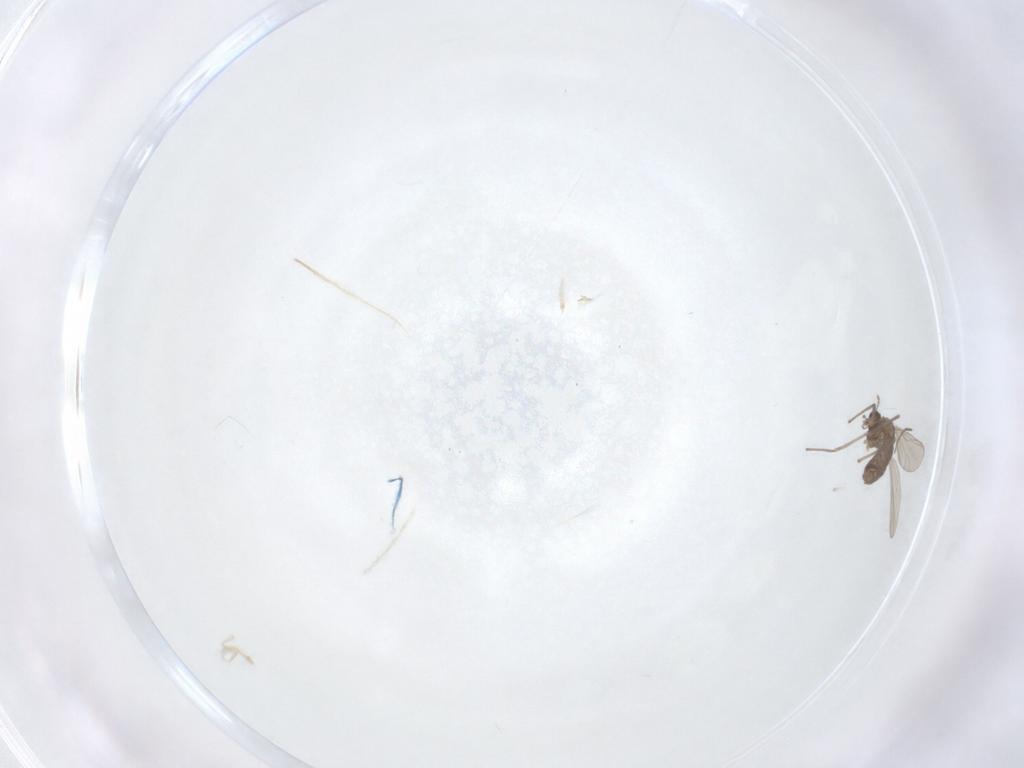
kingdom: Animalia
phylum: Arthropoda
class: Insecta
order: Diptera
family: Chironomidae
